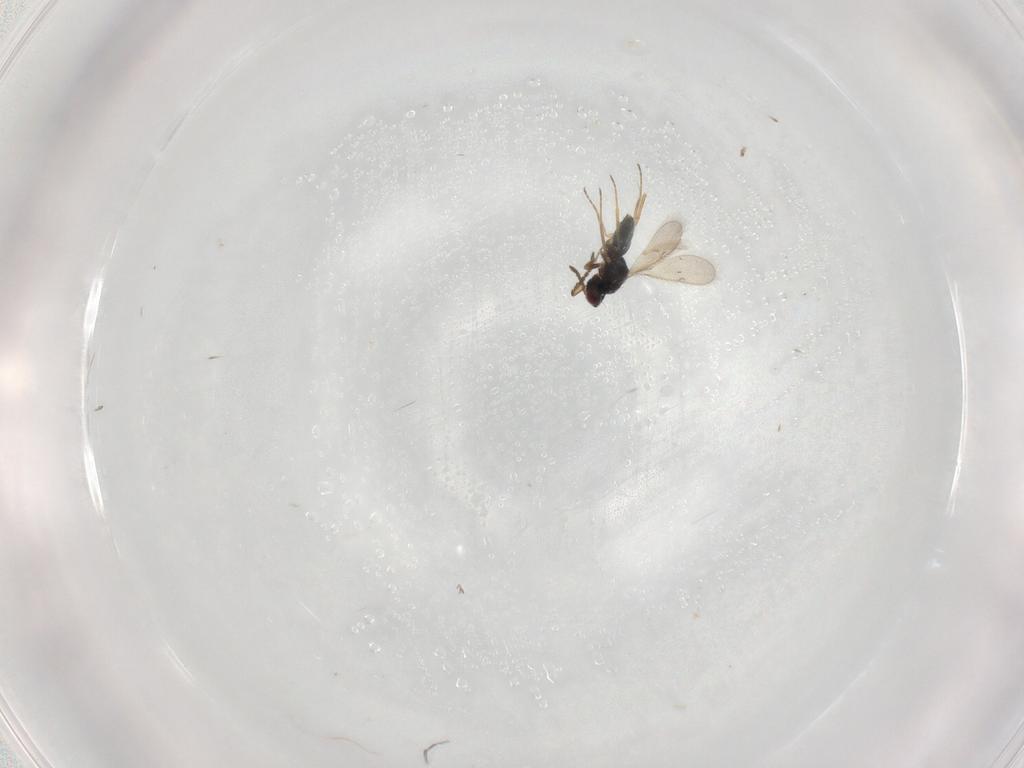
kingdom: Animalia
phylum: Arthropoda
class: Insecta
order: Hymenoptera
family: Tetracampidae
